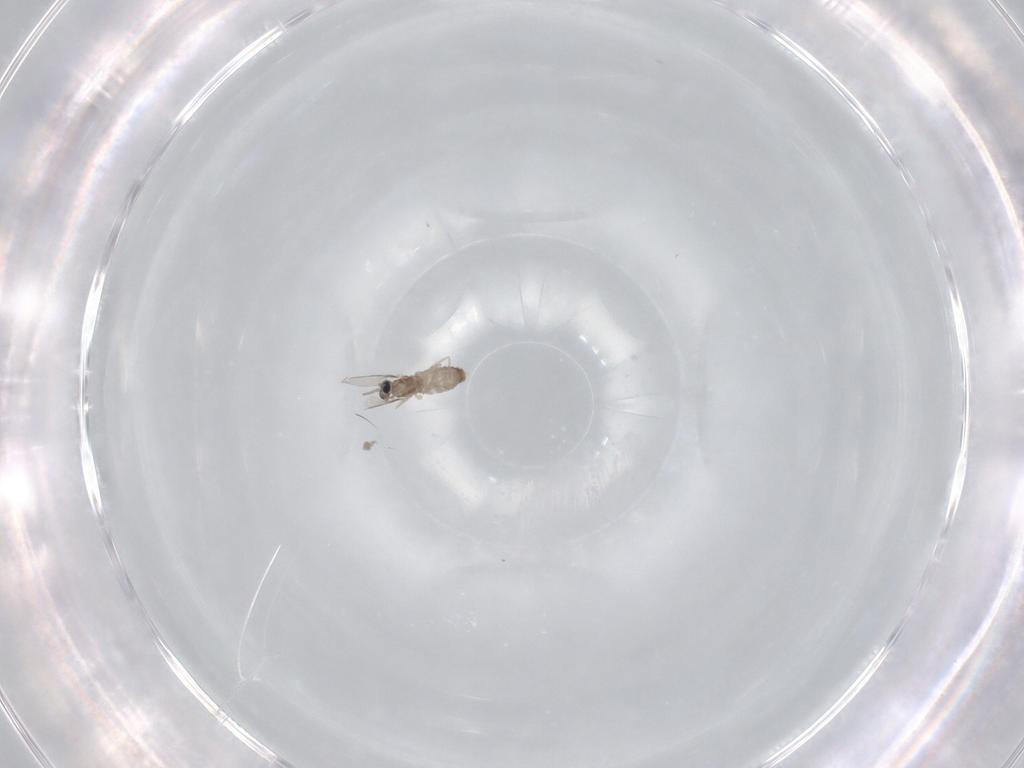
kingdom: Animalia
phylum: Arthropoda
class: Insecta
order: Diptera
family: Cecidomyiidae
